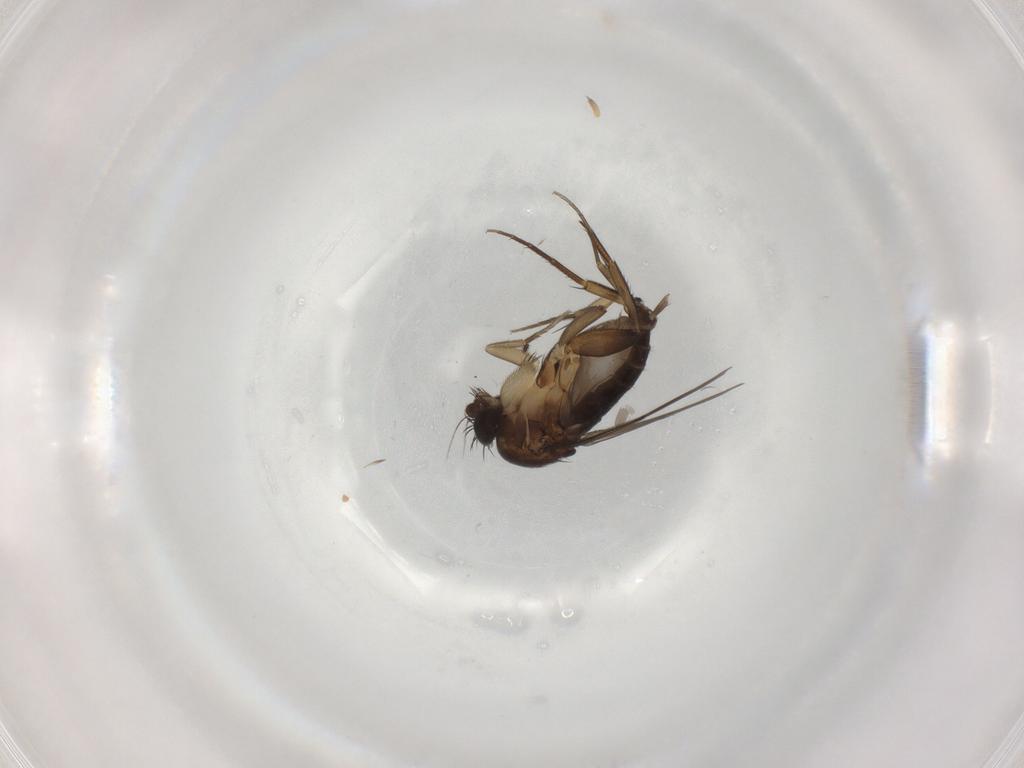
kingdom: Animalia
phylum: Arthropoda
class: Insecta
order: Diptera
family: Phoridae
